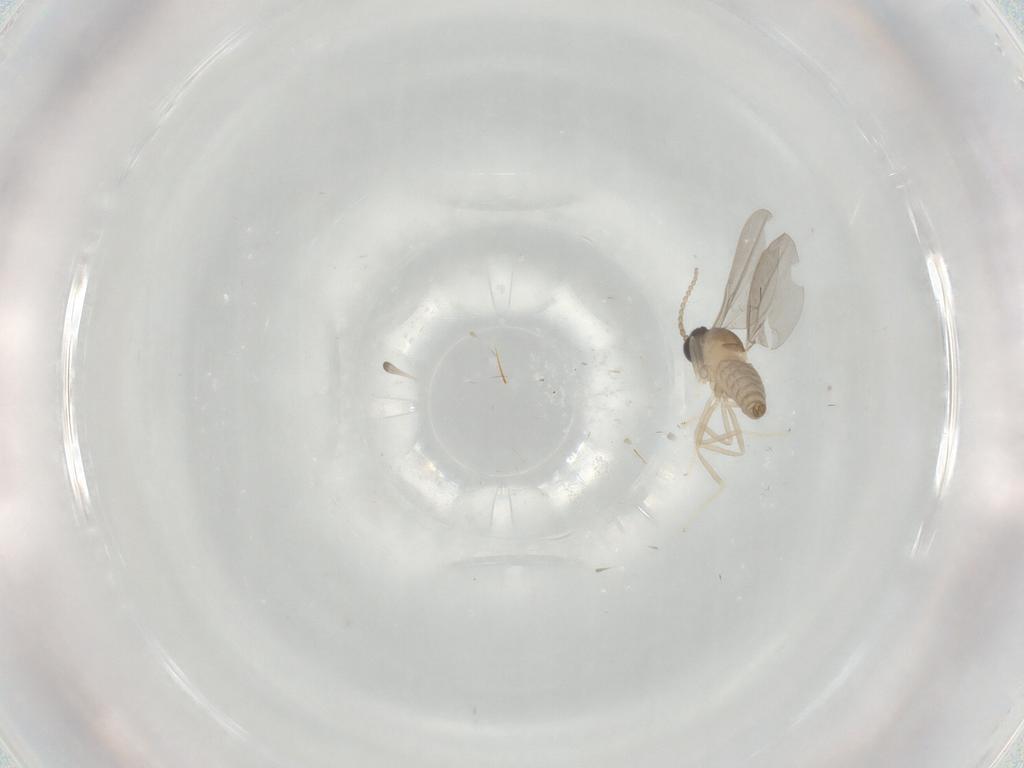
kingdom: Animalia
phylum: Arthropoda
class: Insecta
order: Diptera
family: Cecidomyiidae
